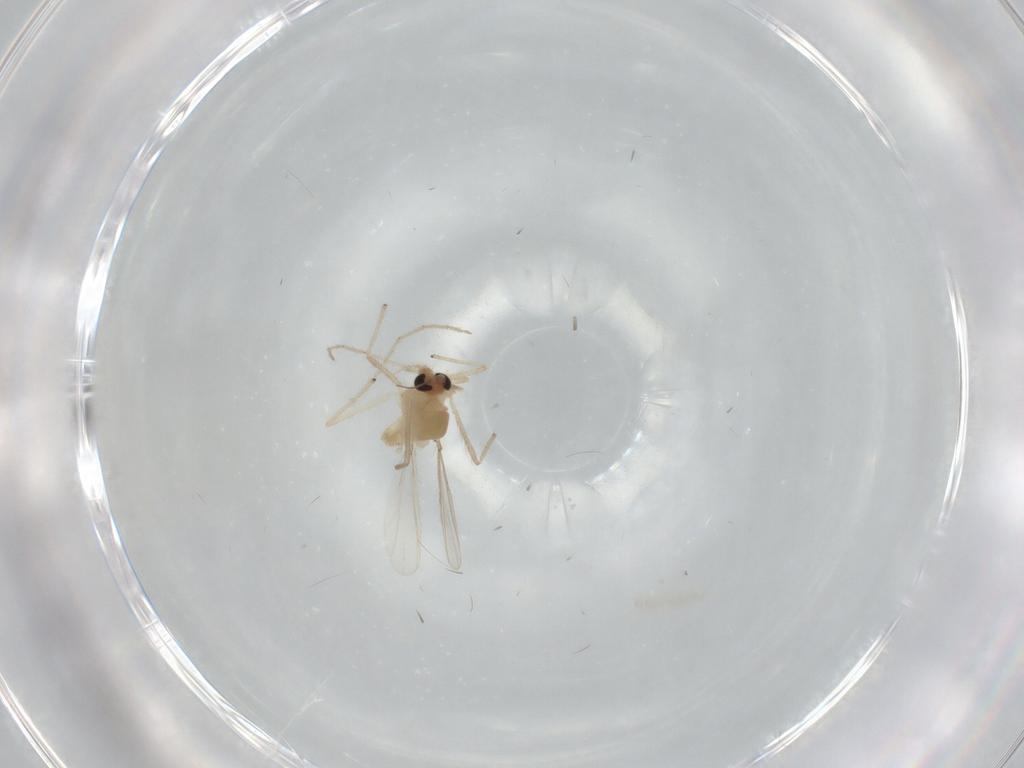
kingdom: Animalia
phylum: Arthropoda
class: Insecta
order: Diptera
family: Chironomidae
